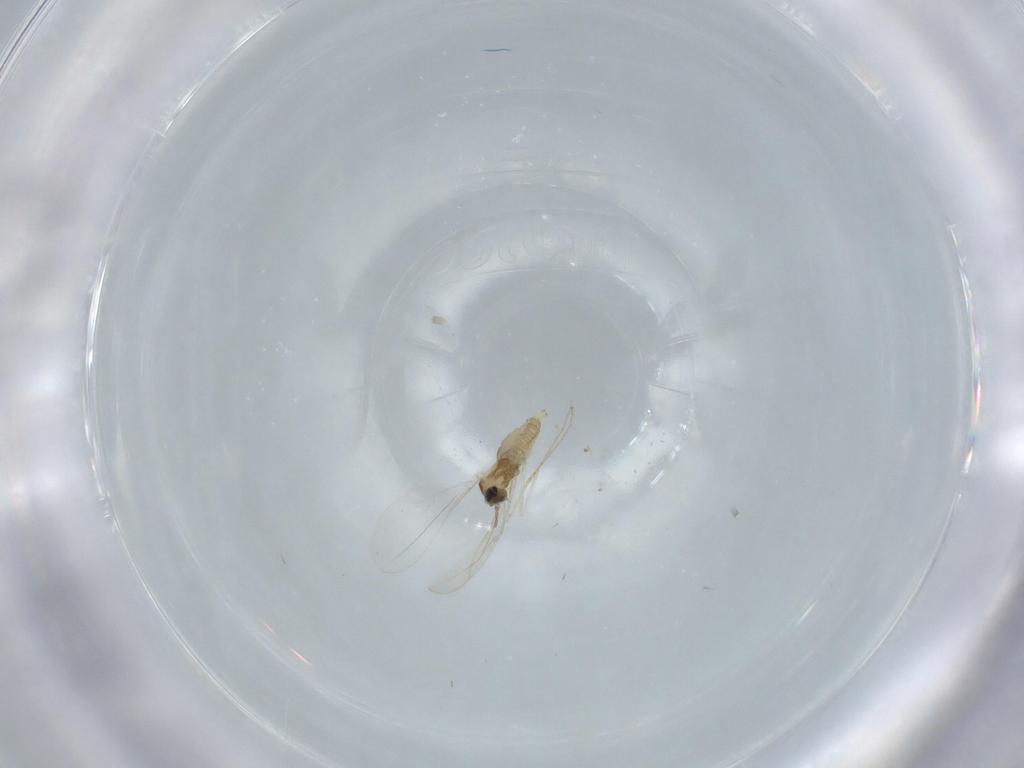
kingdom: Animalia
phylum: Arthropoda
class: Insecta
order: Diptera
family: Cecidomyiidae
